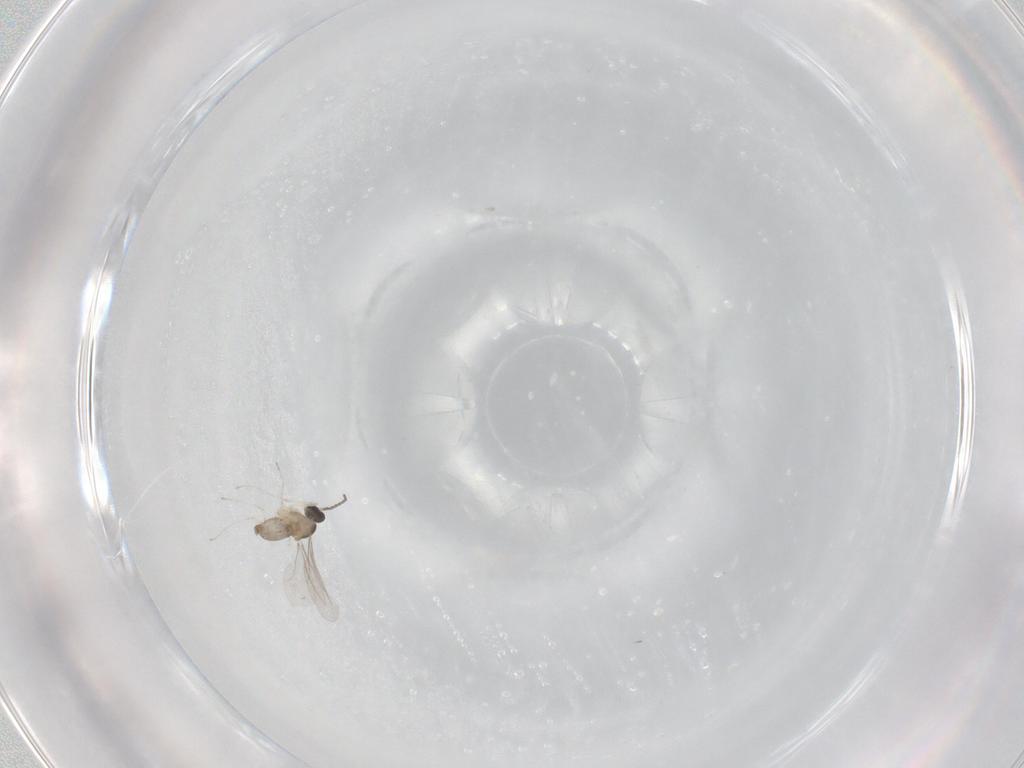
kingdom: Animalia
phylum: Arthropoda
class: Insecta
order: Diptera
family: Cecidomyiidae
